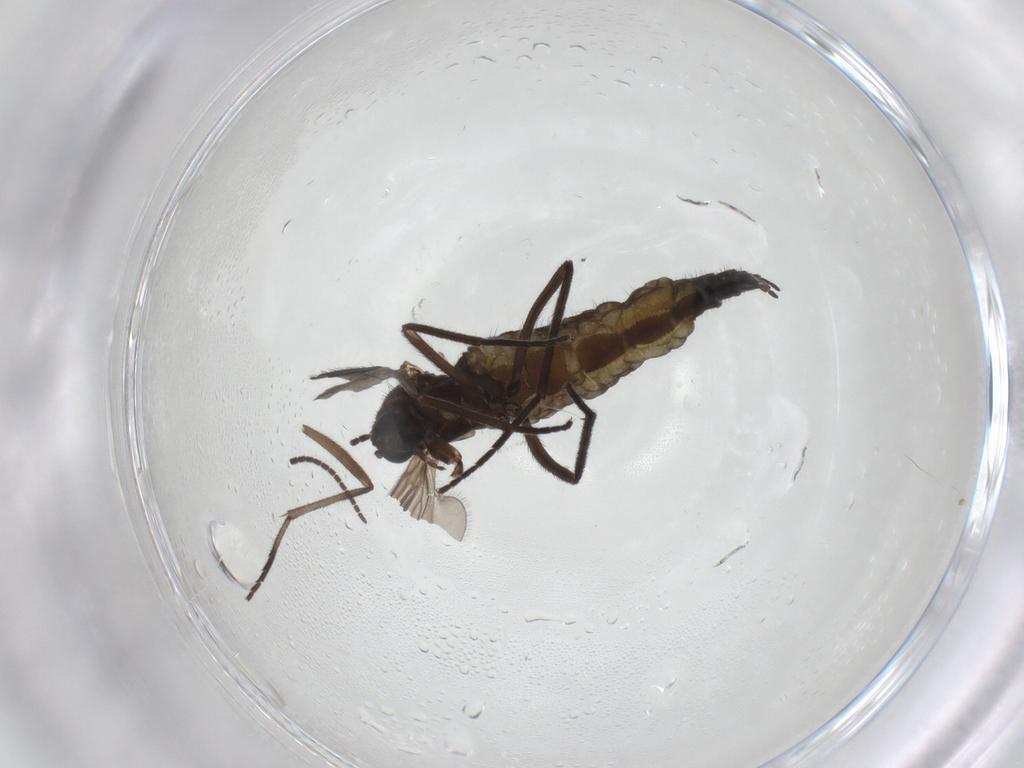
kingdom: Animalia
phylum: Arthropoda
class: Insecta
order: Diptera
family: Sciaridae
